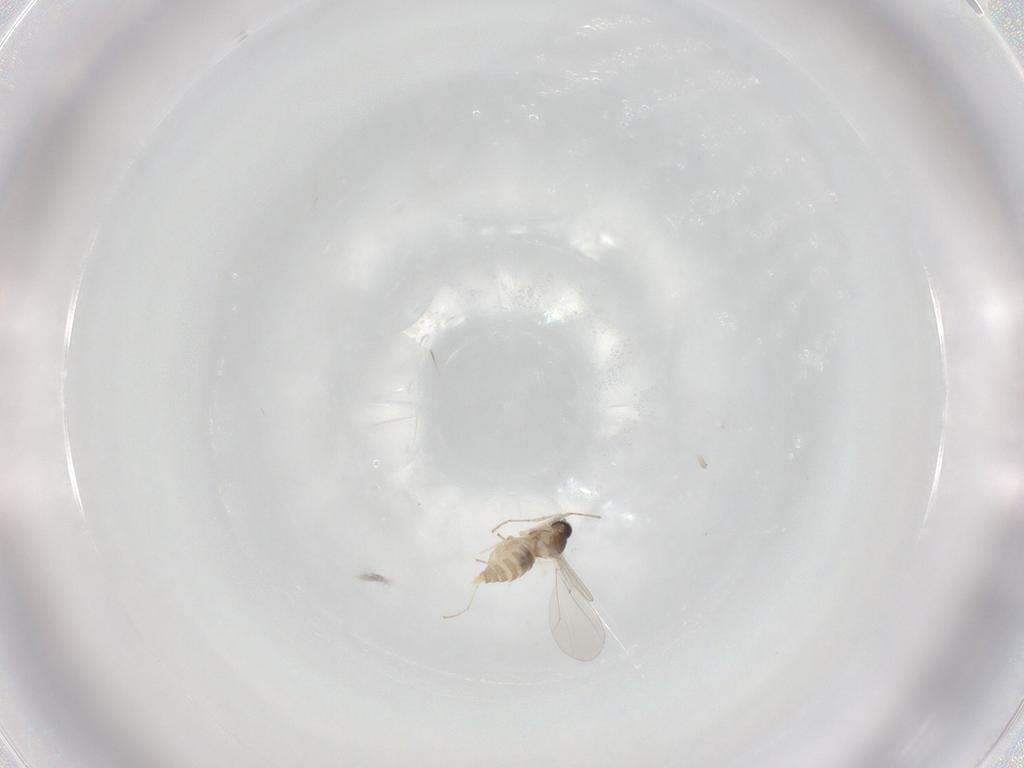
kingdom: Animalia
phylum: Arthropoda
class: Insecta
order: Diptera
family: Cecidomyiidae
